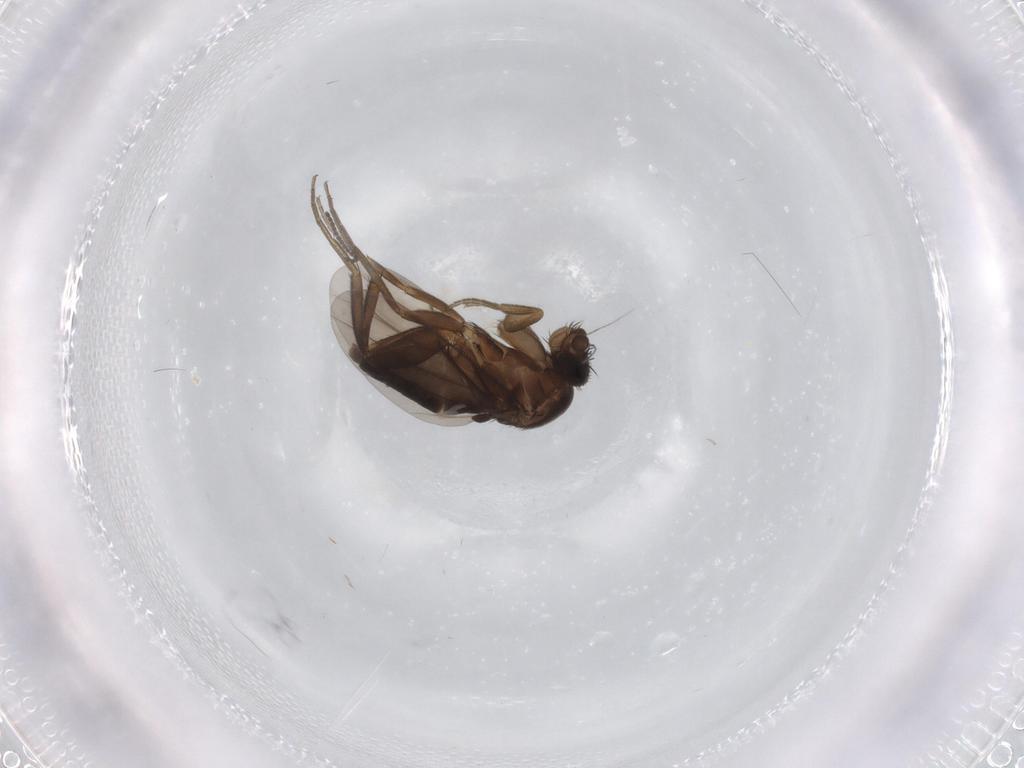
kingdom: Animalia
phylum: Arthropoda
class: Insecta
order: Diptera
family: Phoridae
